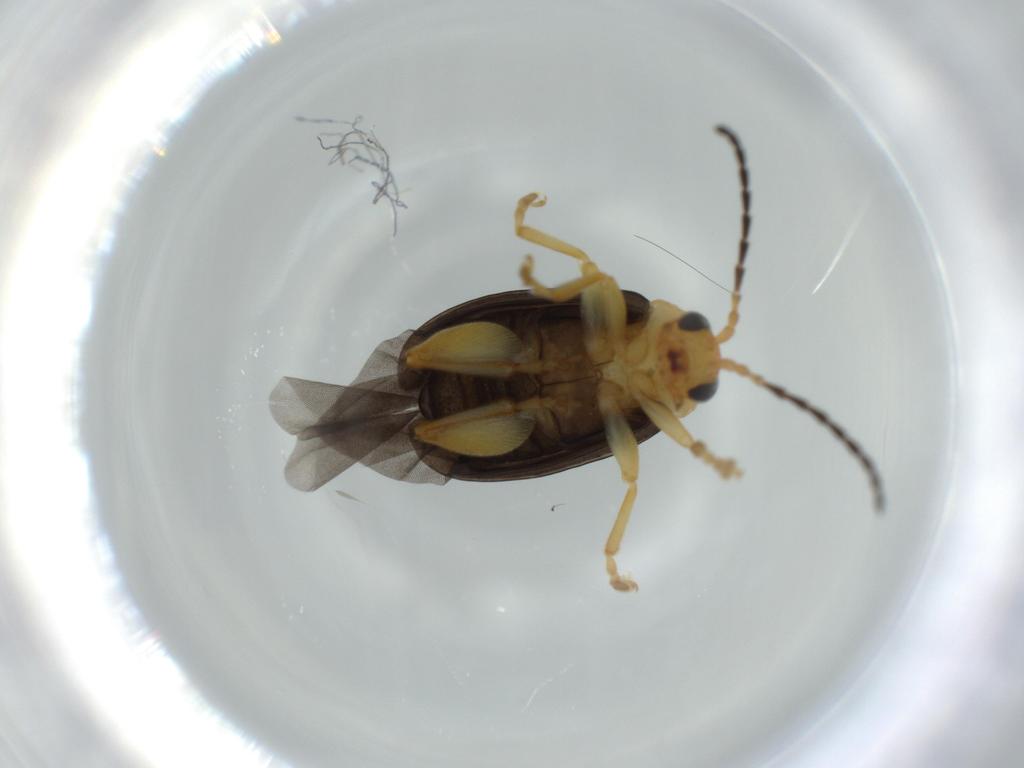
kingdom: Animalia
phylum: Arthropoda
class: Insecta
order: Coleoptera
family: Chrysomelidae
